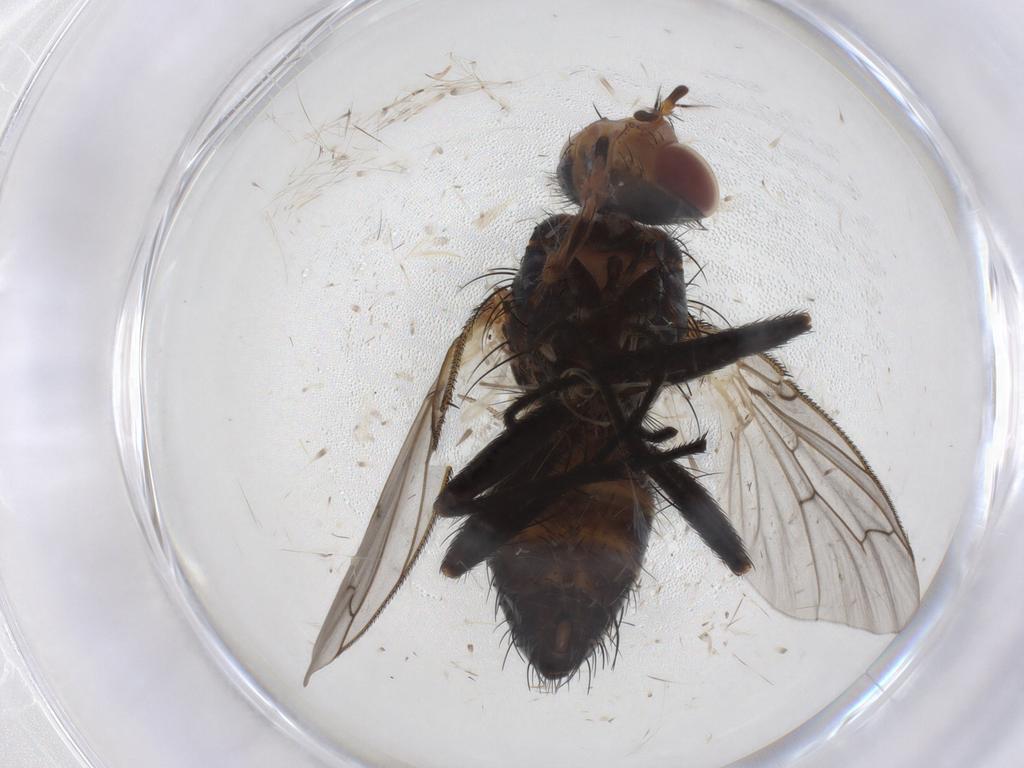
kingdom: Animalia
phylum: Arthropoda
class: Insecta
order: Diptera
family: Tachinidae
